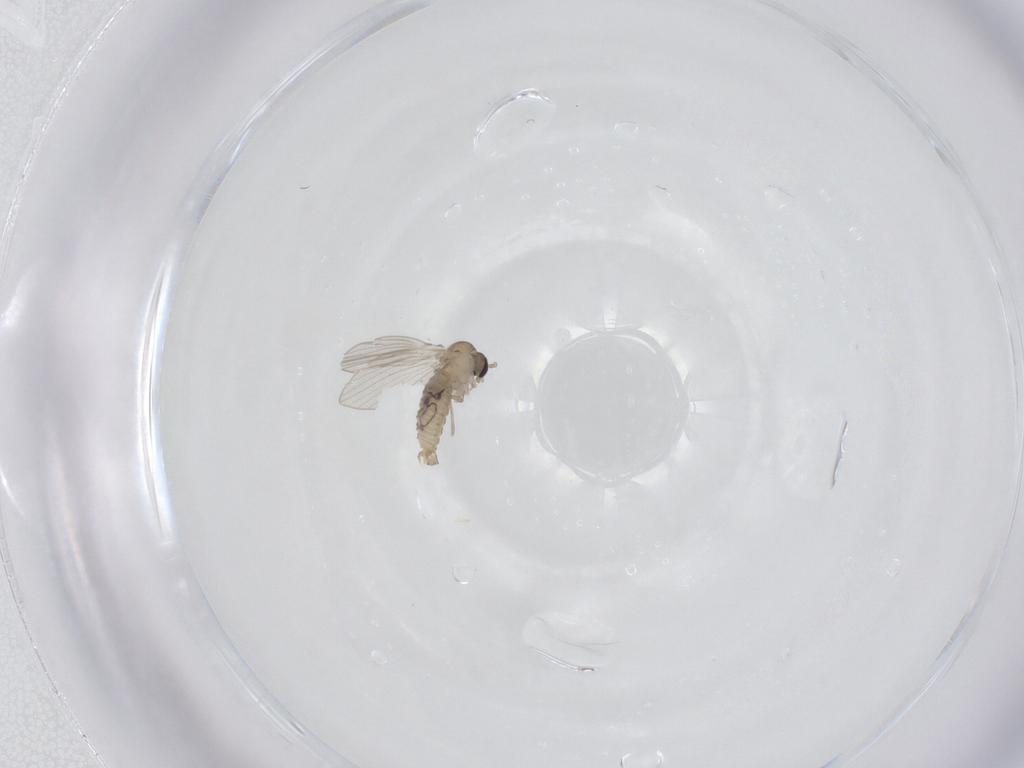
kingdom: Animalia
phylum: Arthropoda
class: Insecta
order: Diptera
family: Psychodidae
